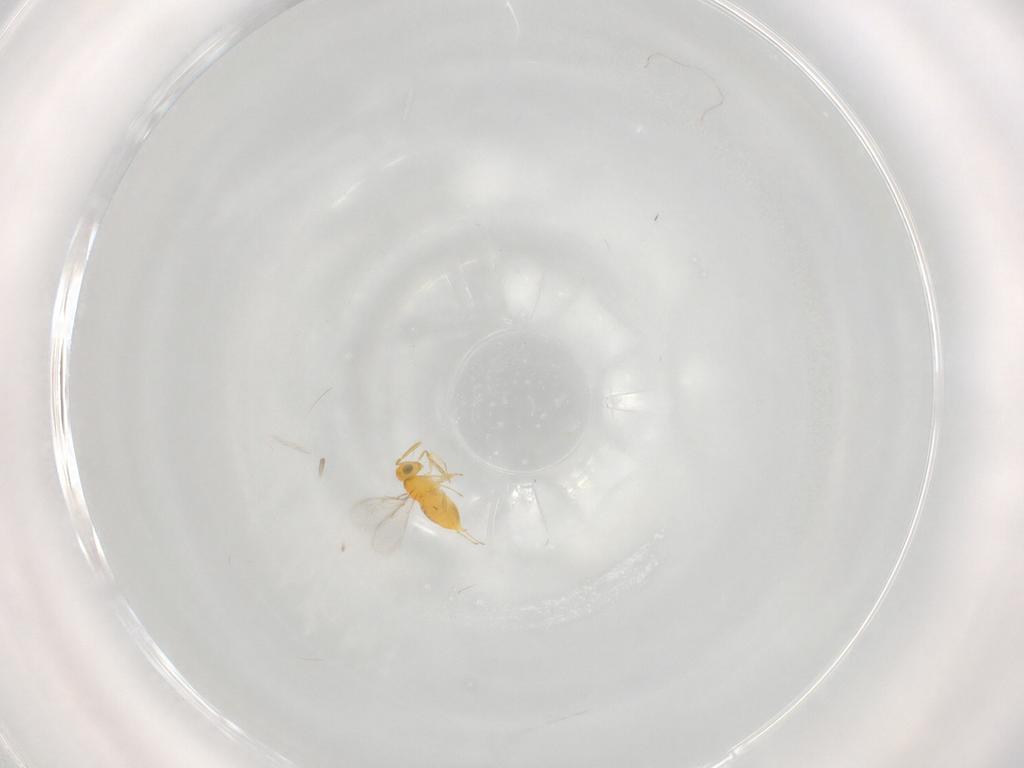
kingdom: Animalia
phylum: Arthropoda
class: Insecta
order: Hymenoptera
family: Aphelinidae
